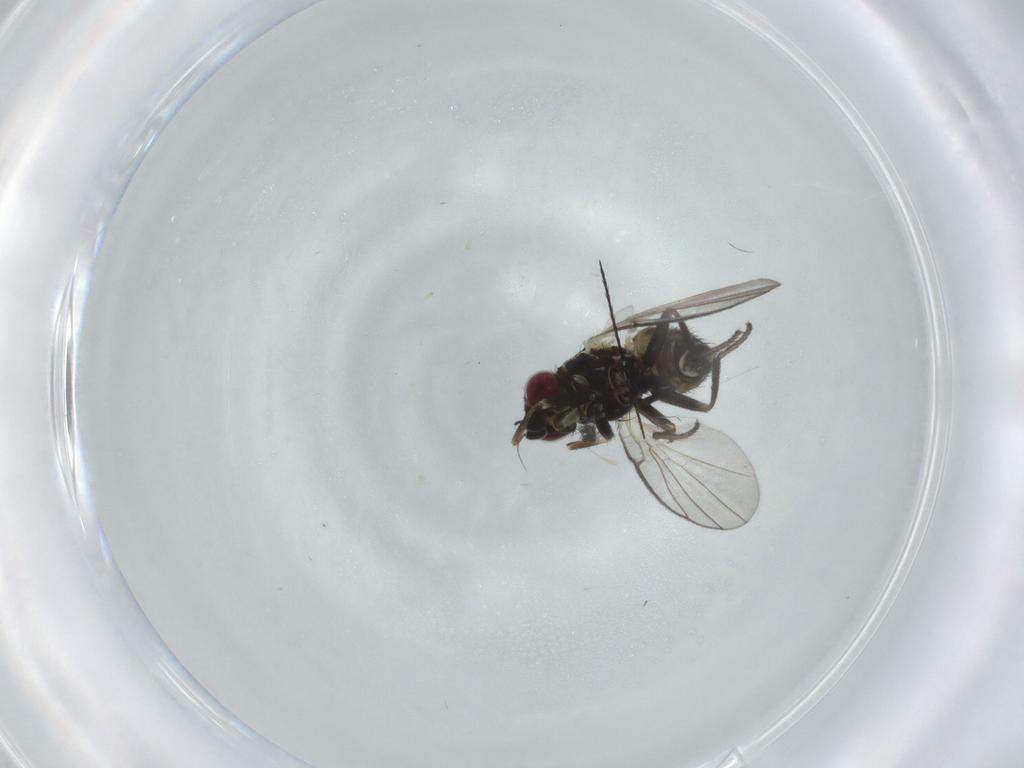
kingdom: Animalia
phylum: Arthropoda
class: Insecta
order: Diptera
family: Ceratopogonidae
